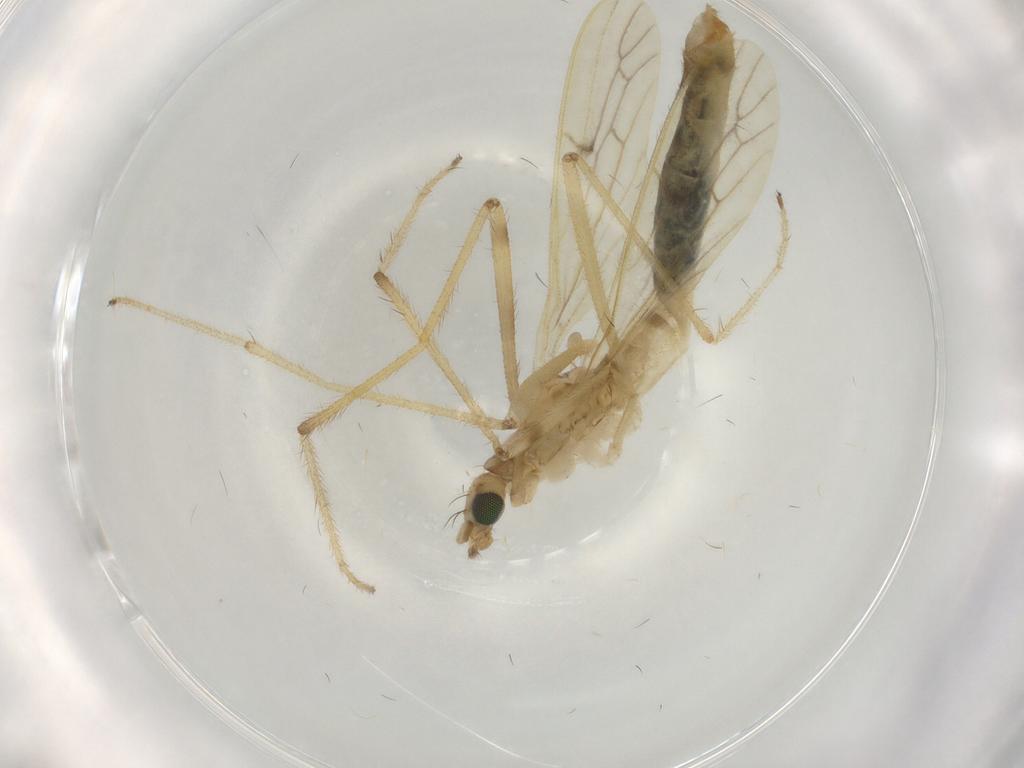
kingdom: Animalia
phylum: Arthropoda
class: Insecta
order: Diptera
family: Limoniidae
